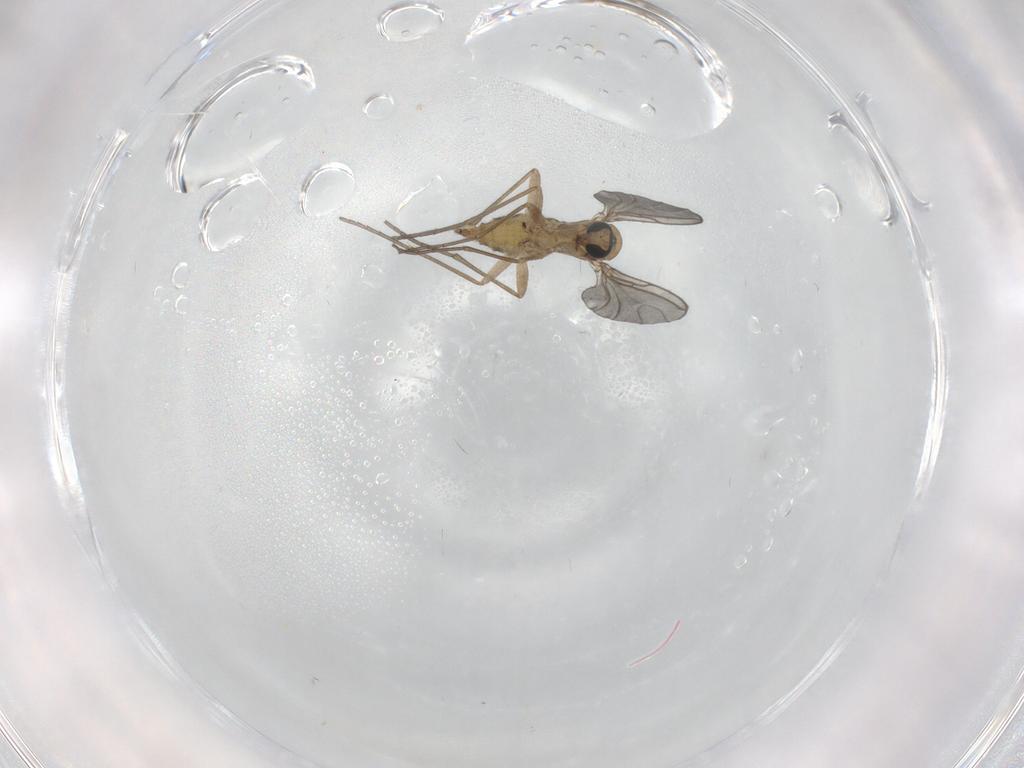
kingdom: Animalia
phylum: Arthropoda
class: Insecta
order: Diptera
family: Sciaridae
